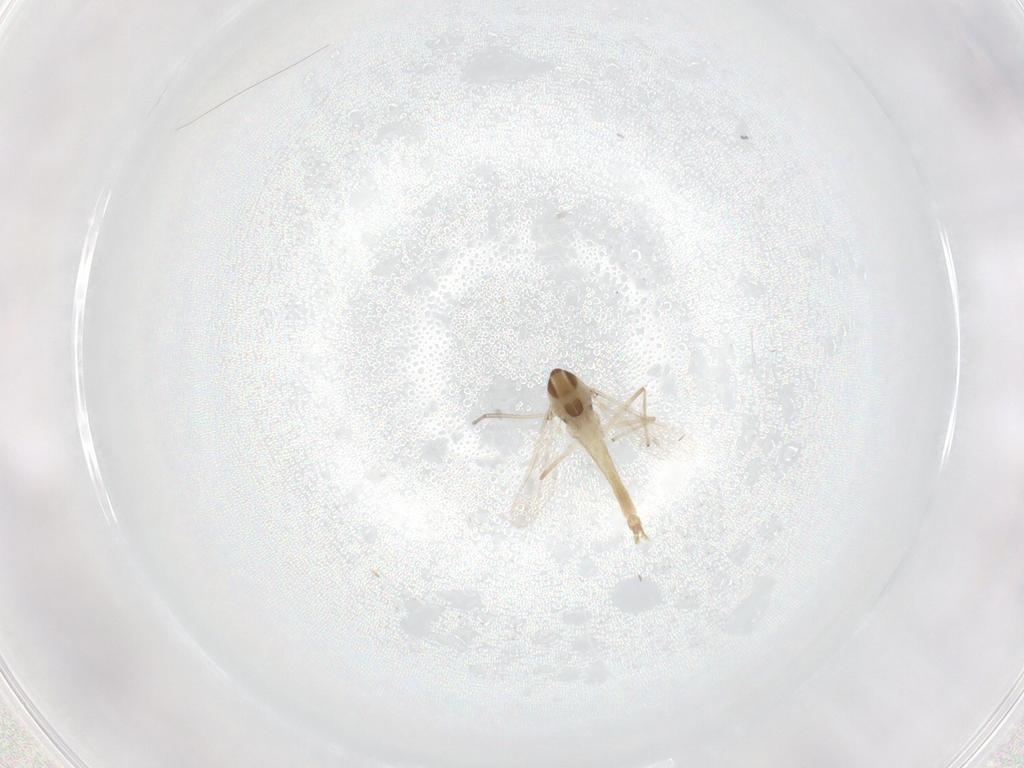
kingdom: Animalia
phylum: Arthropoda
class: Insecta
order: Diptera
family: Chironomidae
